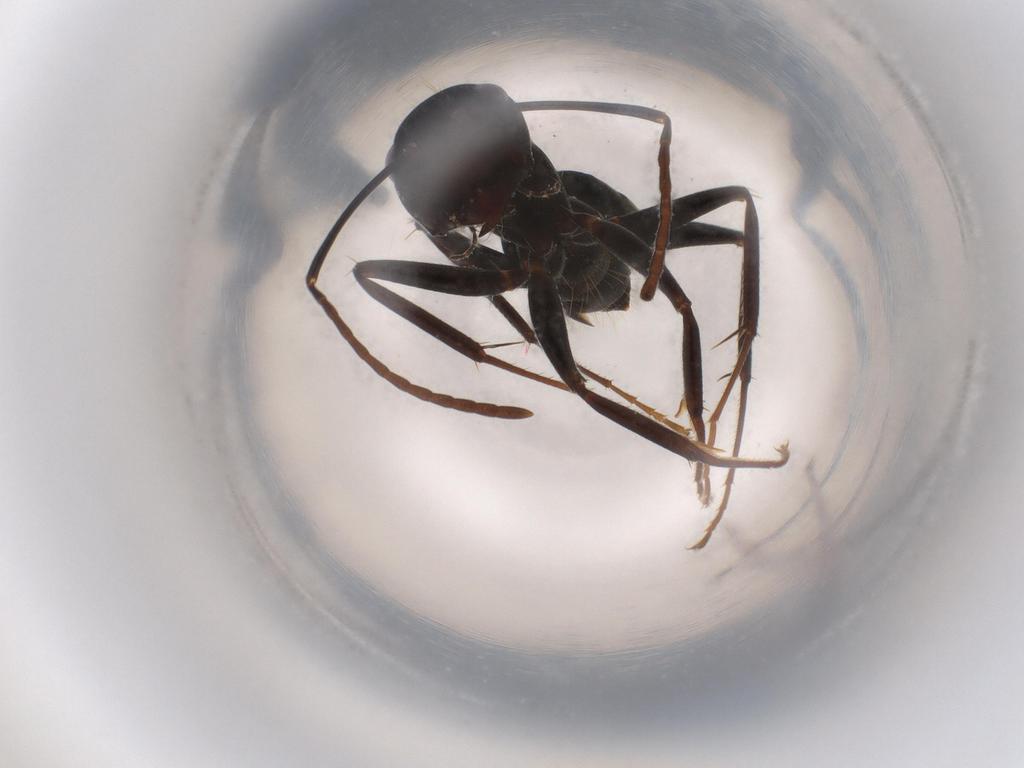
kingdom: Animalia
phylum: Arthropoda
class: Insecta
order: Hymenoptera
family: Formicidae
